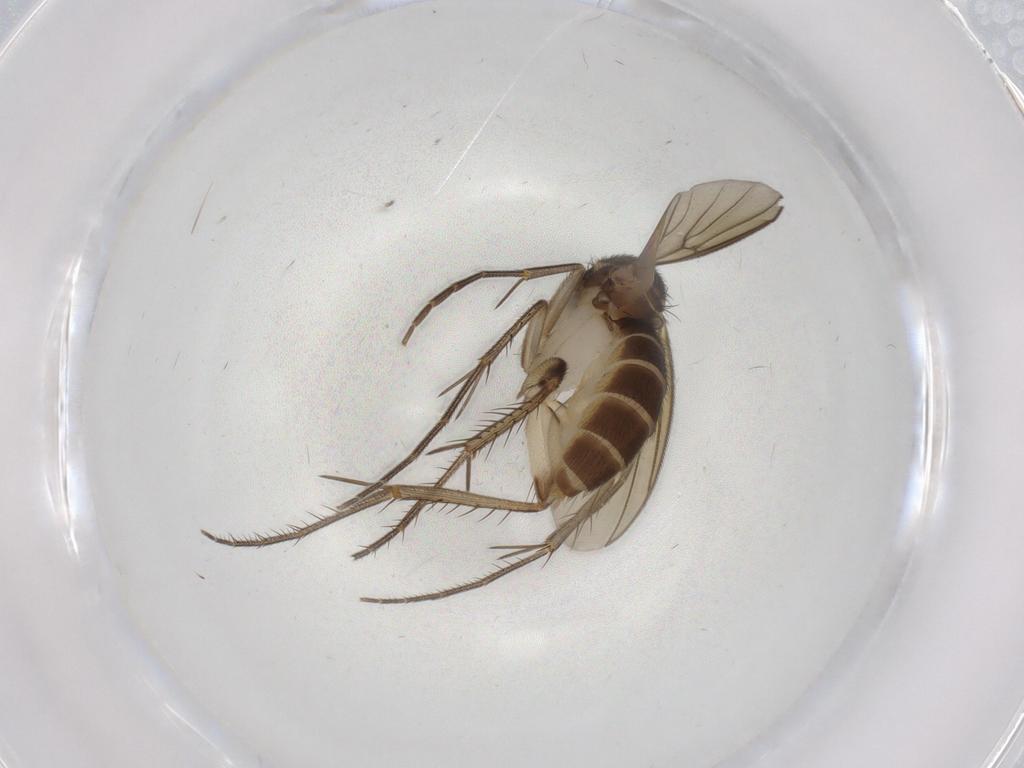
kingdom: Animalia
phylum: Arthropoda
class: Insecta
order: Diptera
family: Mycetophilidae
